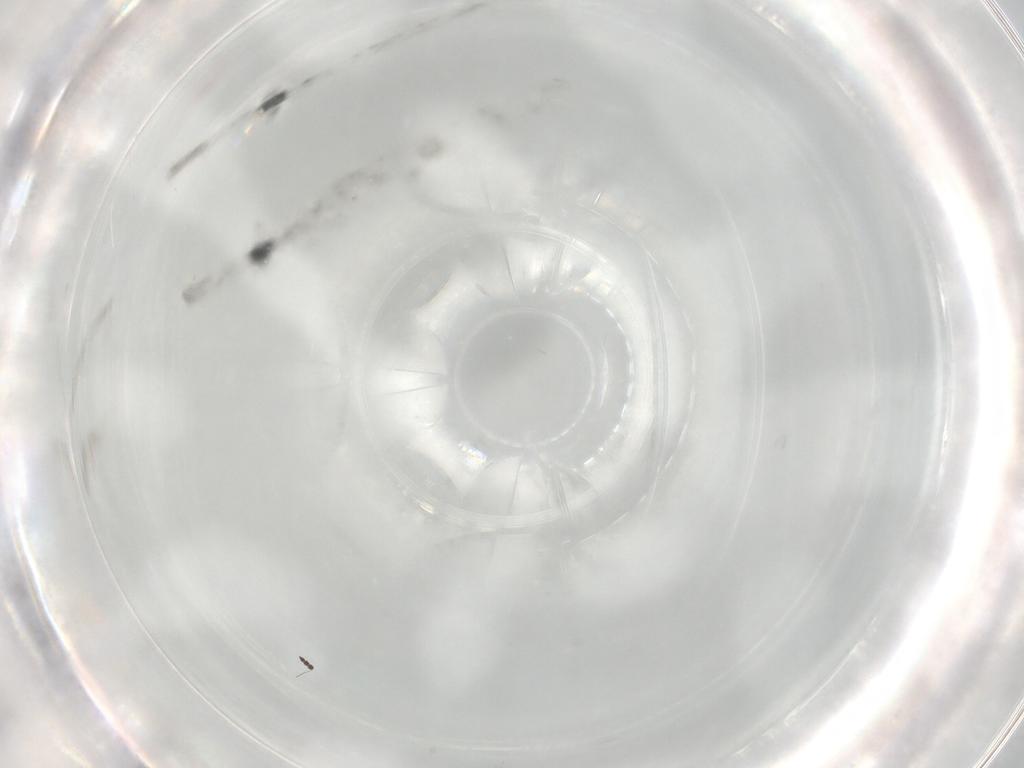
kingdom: Animalia
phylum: Arthropoda
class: Insecta
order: Hymenoptera
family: Scelionidae
